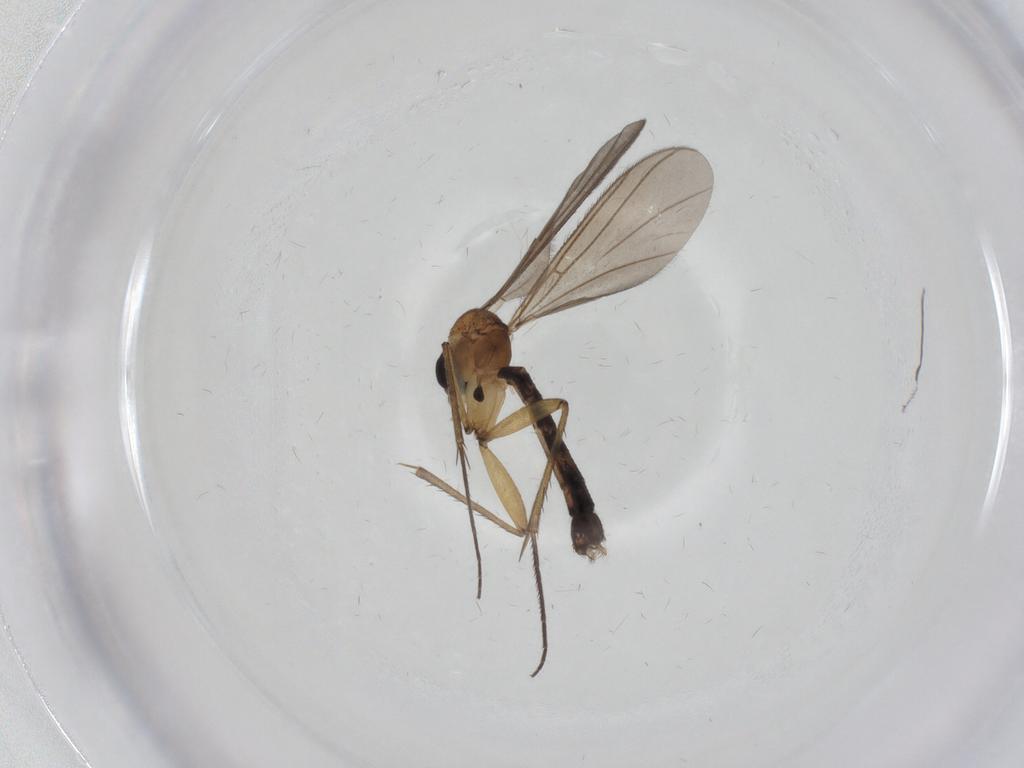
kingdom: Animalia
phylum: Arthropoda
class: Insecta
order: Diptera
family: Mycetophilidae
